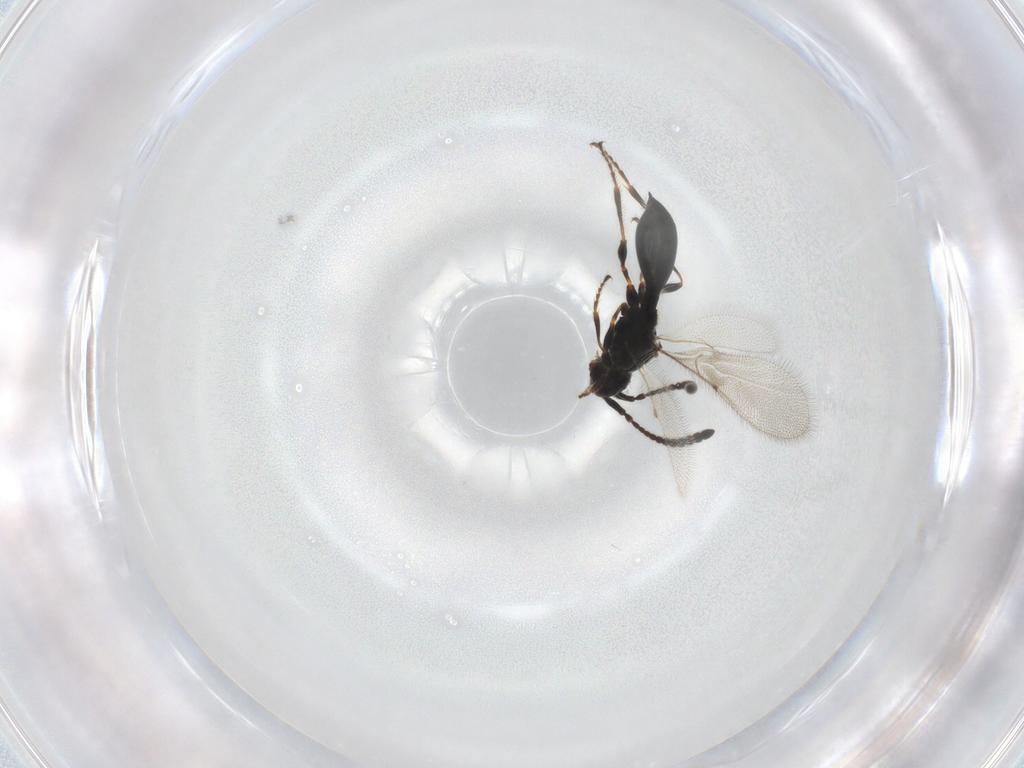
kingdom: Animalia
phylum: Arthropoda
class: Insecta
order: Hymenoptera
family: Diapriidae
